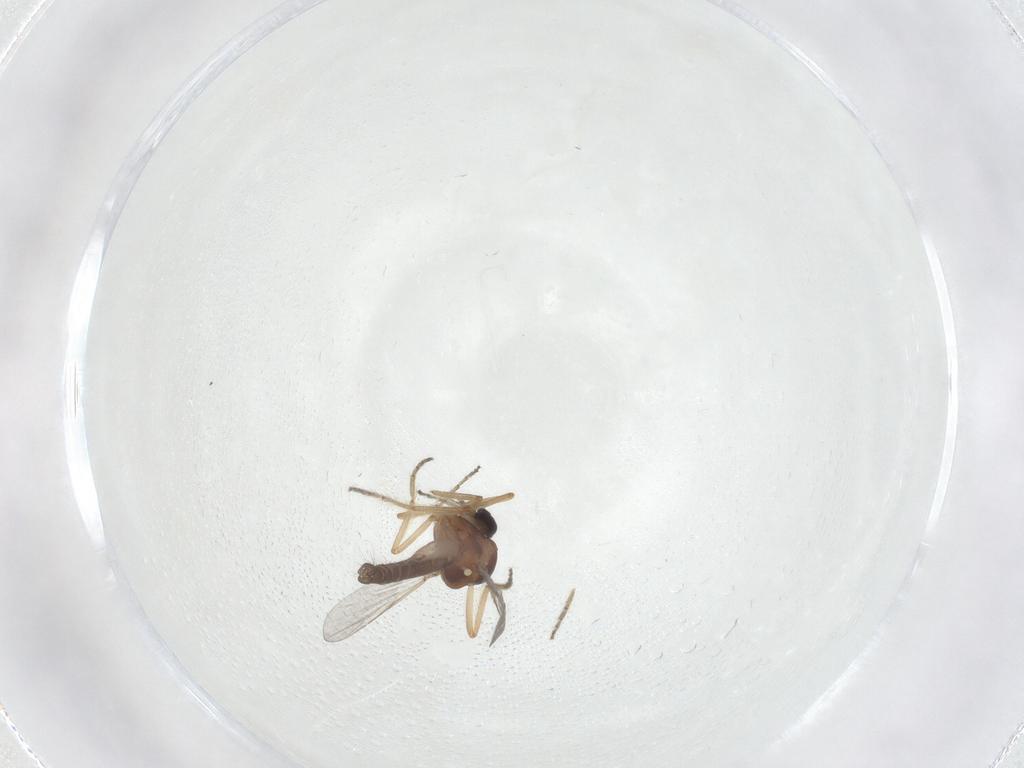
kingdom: Animalia
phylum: Arthropoda
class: Insecta
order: Diptera
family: Ceratopogonidae
